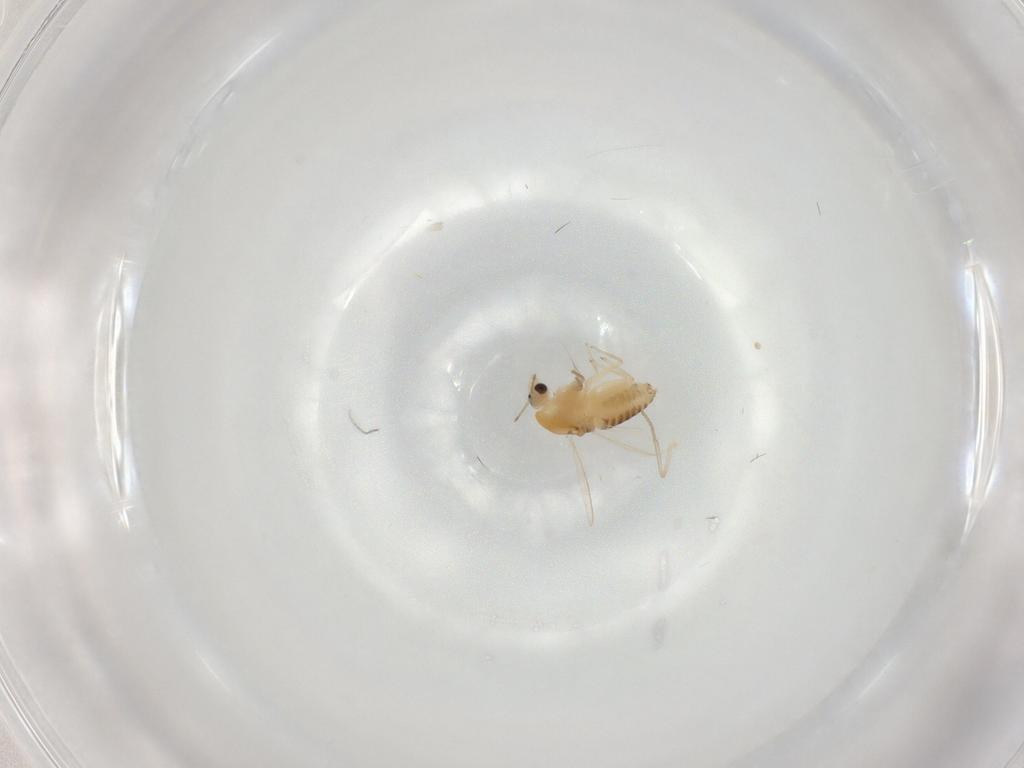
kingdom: Animalia
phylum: Arthropoda
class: Insecta
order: Diptera
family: Chironomidae
